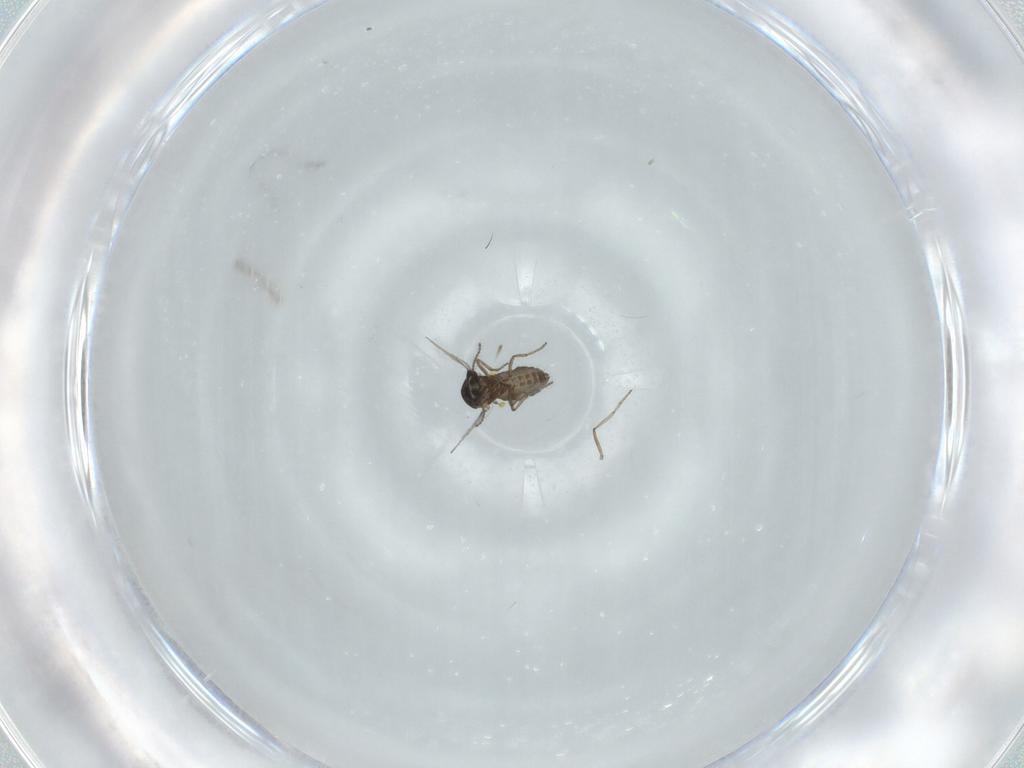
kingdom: Animalia
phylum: Arthropoda
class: Insecta
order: Diptera
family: Ceratopogonidae
